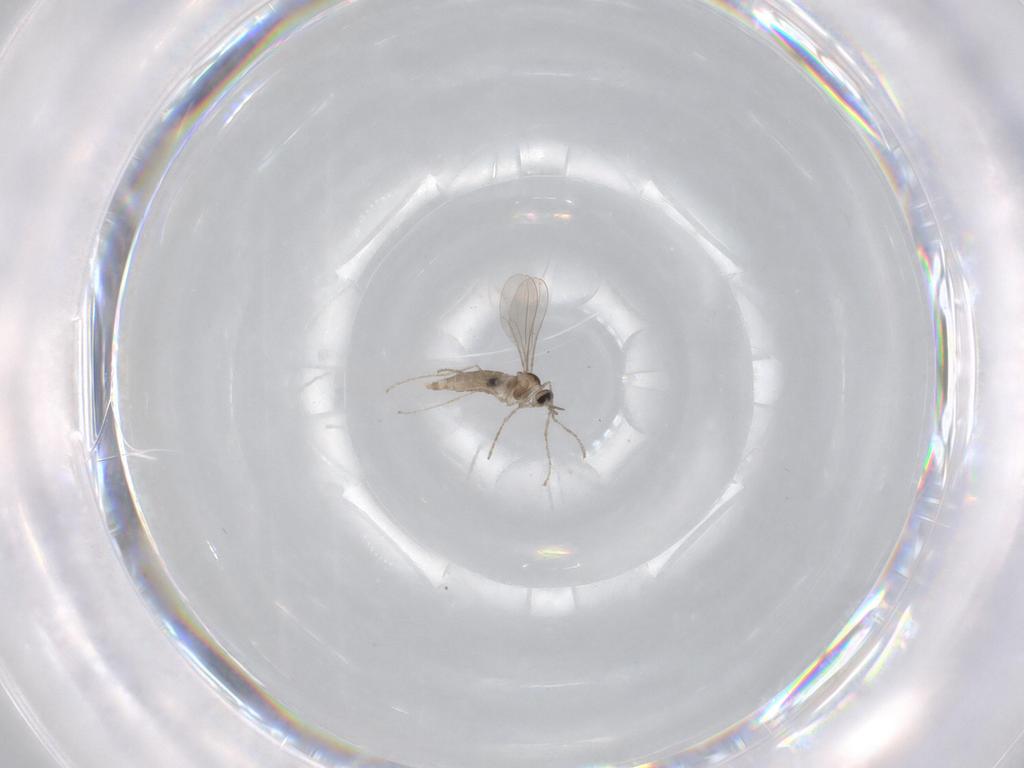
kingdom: Animalia
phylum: Arthropoda
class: Insecta
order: Diptera
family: Chironomidae
